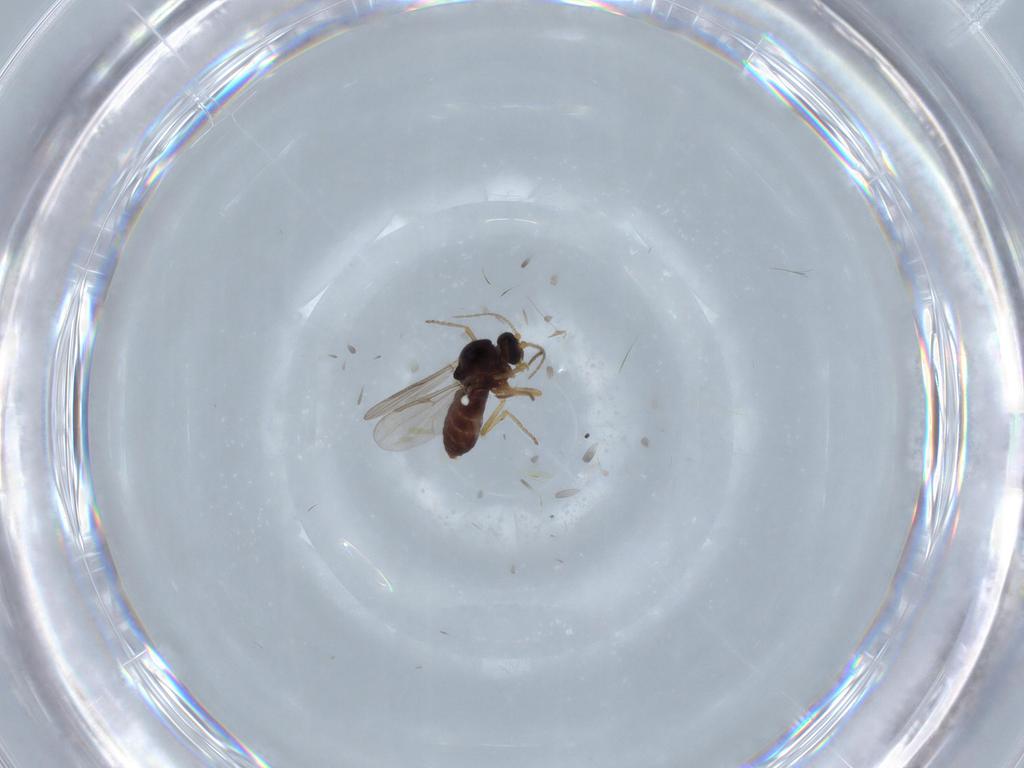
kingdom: Animalia
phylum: Arthropoda
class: Insecta
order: Diptera
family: Ceratopogonidae
